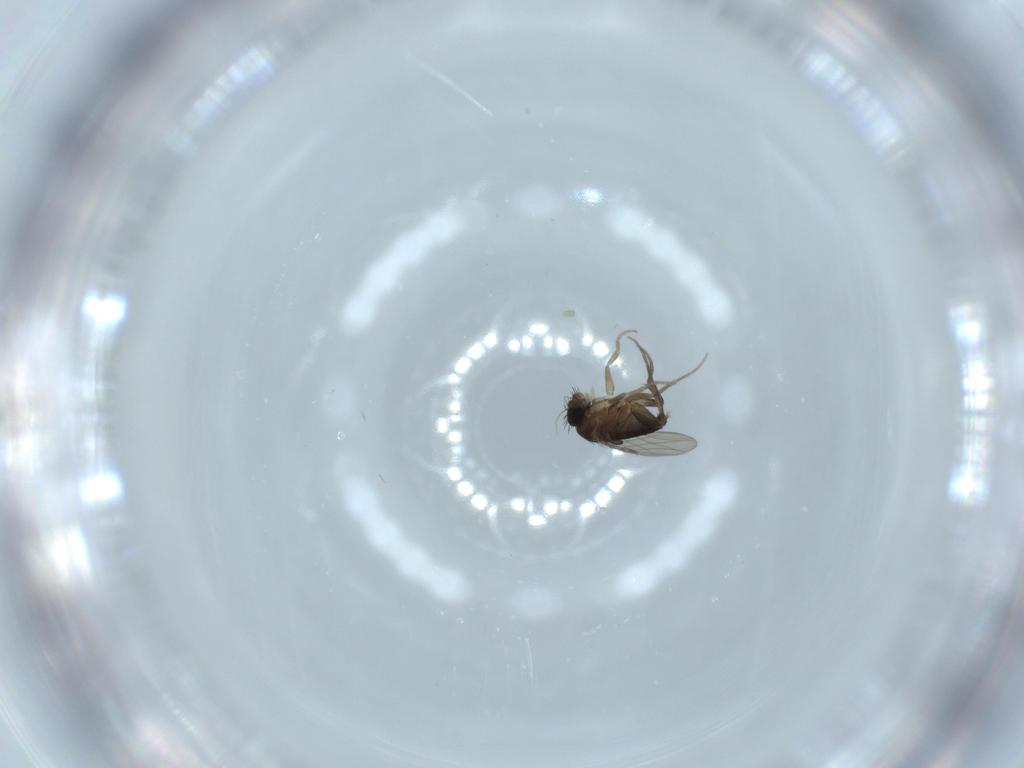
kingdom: Animalia
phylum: Arthropoda
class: Insecta
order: Diptera
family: Phoridae
